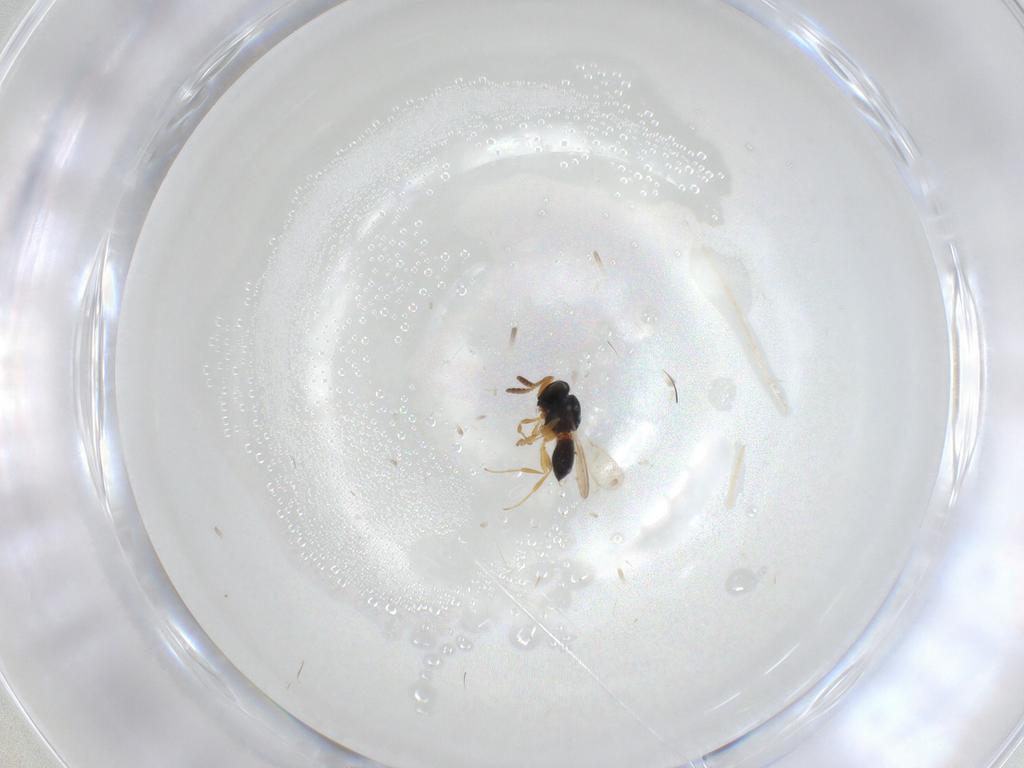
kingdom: Animalia
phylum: Arthropoda
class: Insecta
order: Hymenoptera
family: Scelionidae
